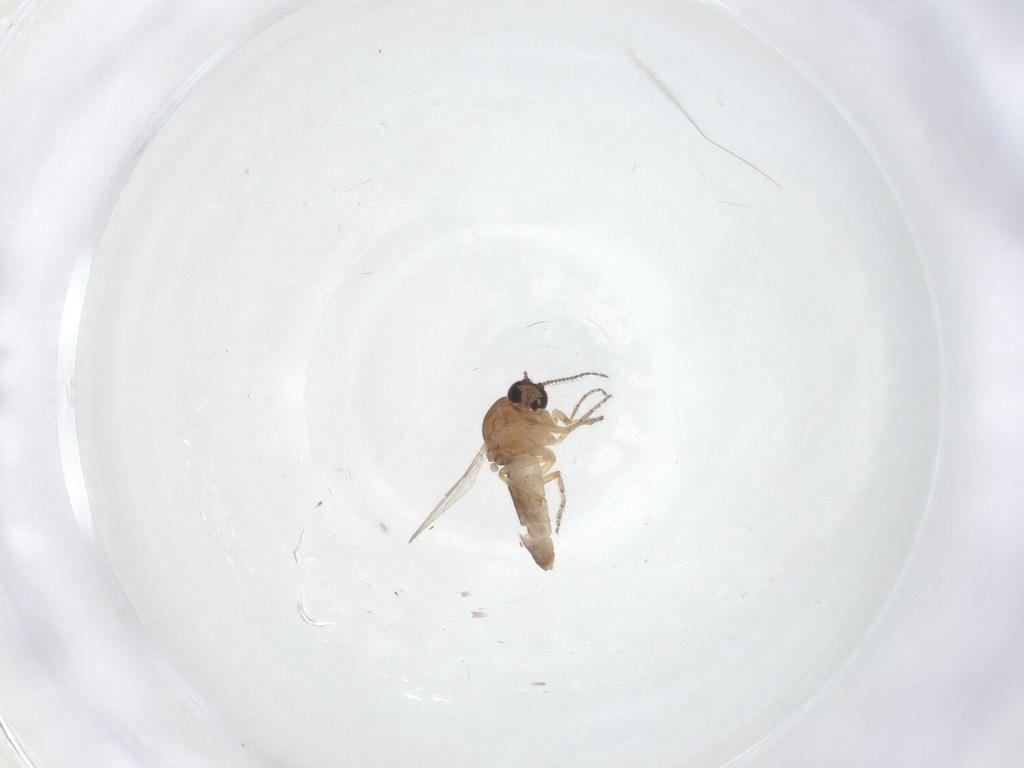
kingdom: Animalia
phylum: Arthropoda
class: Insecta
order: Diptera
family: Ceratopogonidae
